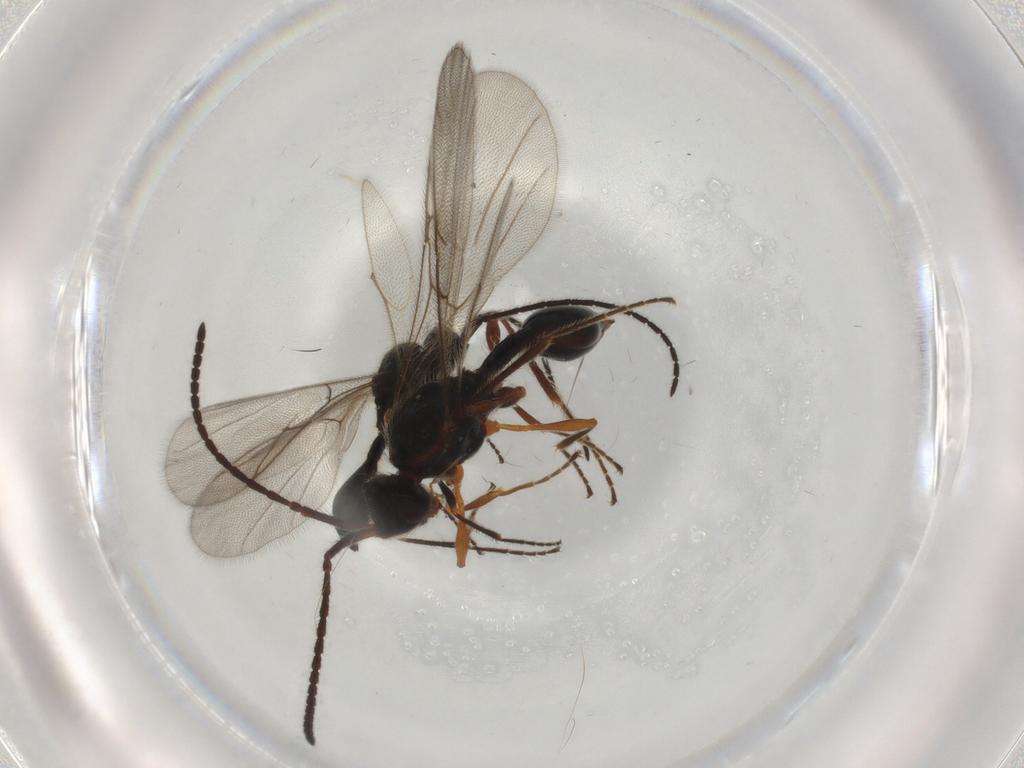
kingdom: Animalia
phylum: Arthropoda
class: Insecta
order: Hymenoptera
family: Diapriidae
